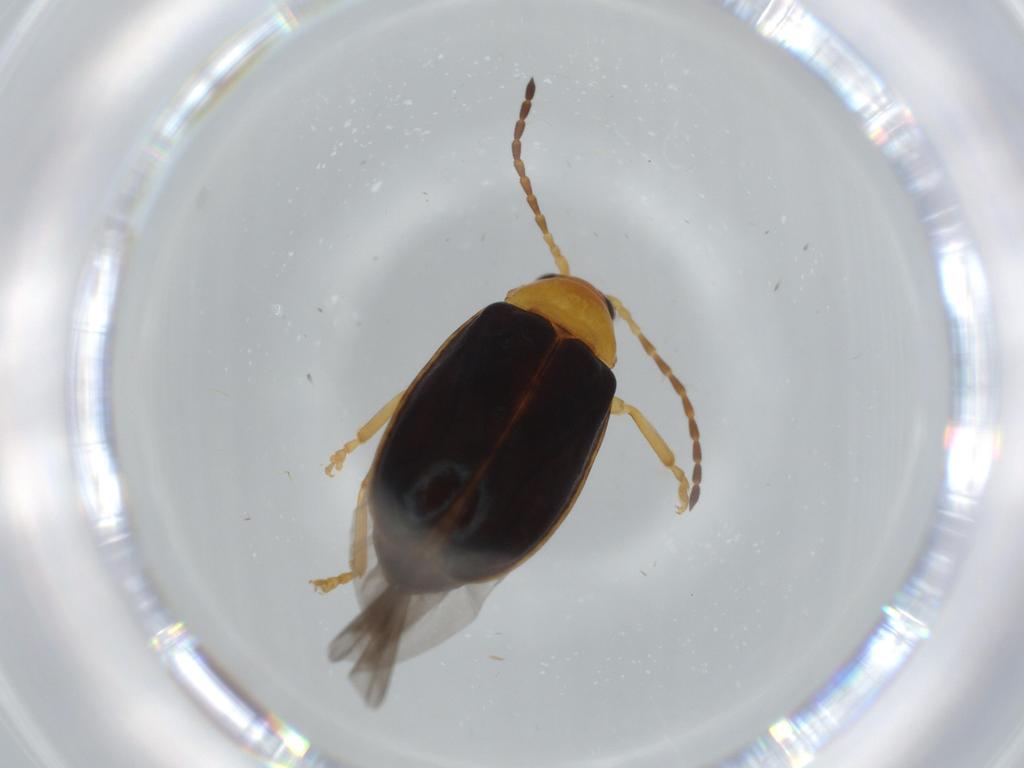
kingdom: Animalia
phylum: Arthropoda
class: Insecta
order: Coleoptera
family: Chrysomelidae
